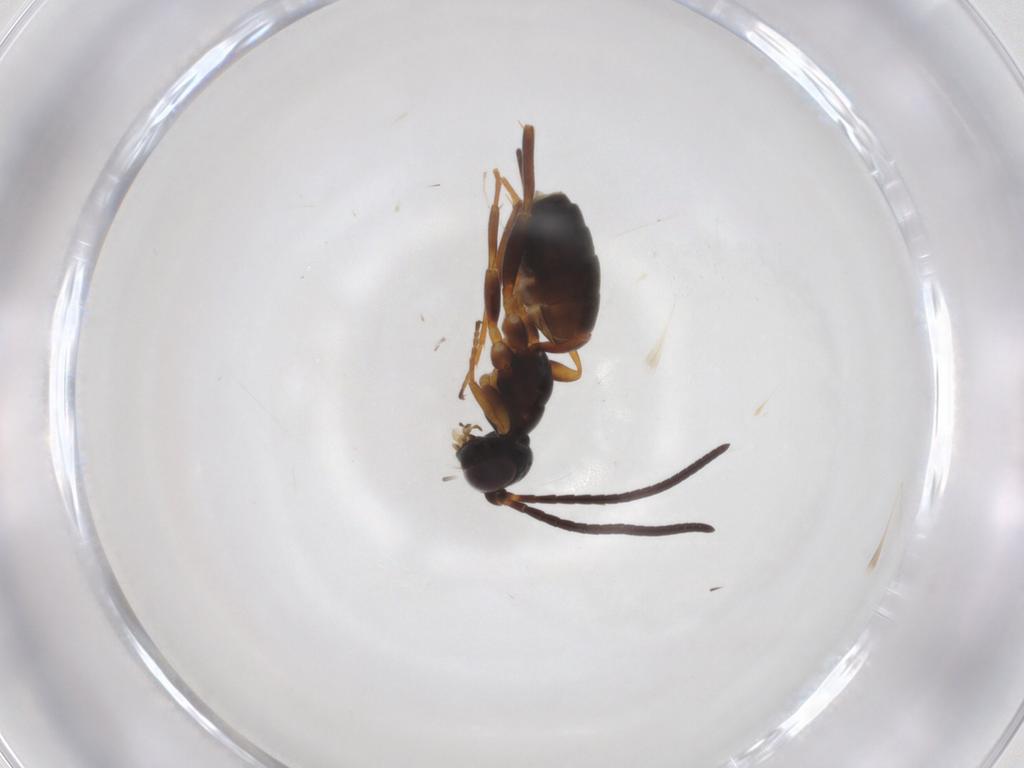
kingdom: Animalia
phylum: Arthropoda
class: Insecta
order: Hymenoptera
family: Ichneumonidae
